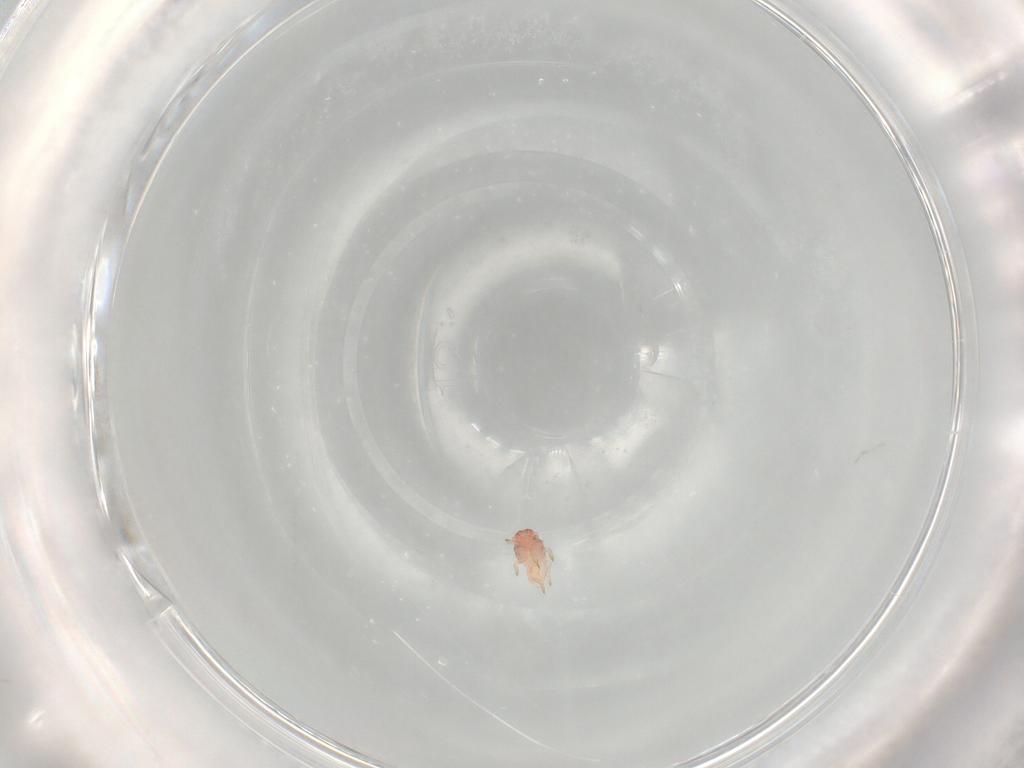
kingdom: Animalia
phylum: Arthropoda
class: Insecta
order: Hemiptera
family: Derbidae
